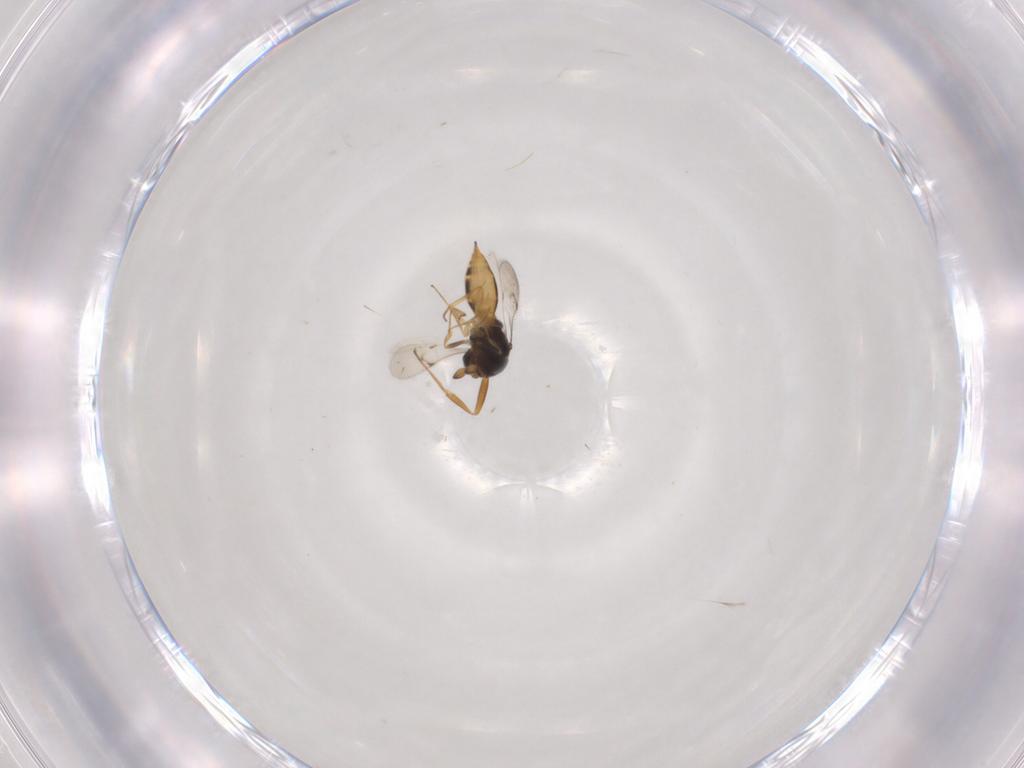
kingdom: Animalia
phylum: Arthropoda
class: Insecta
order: Hymenoptera
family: Scelionidae
